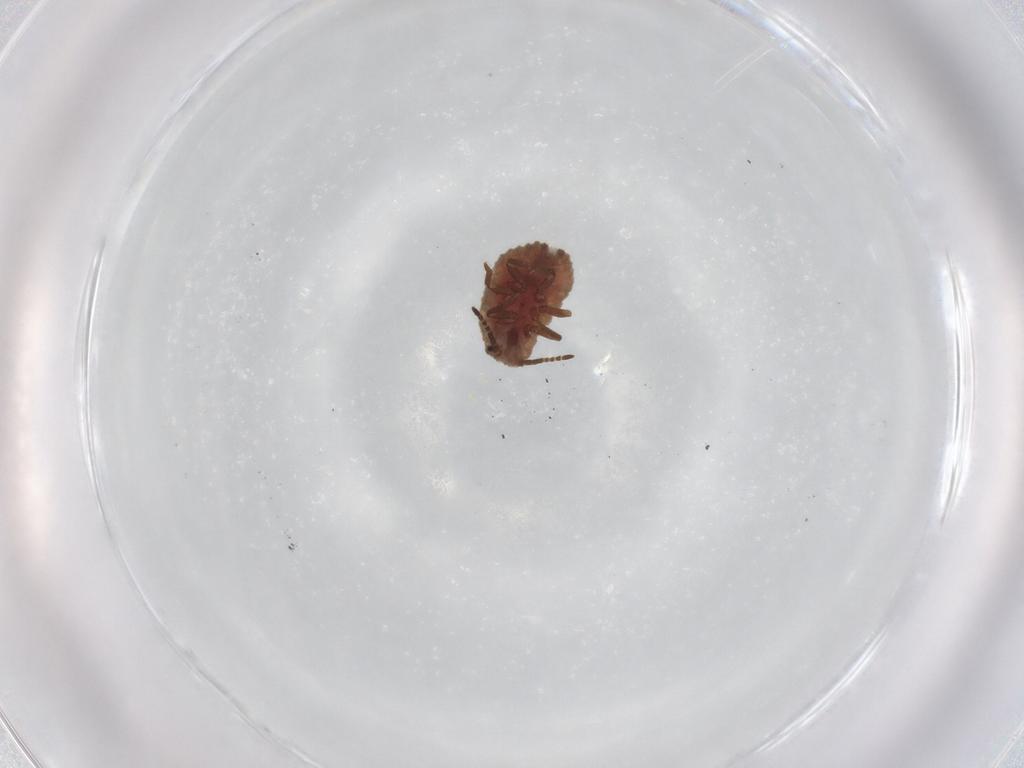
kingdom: Animalia
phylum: Arthropoda
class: Insecta
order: Hemiptera
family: Putoidae
